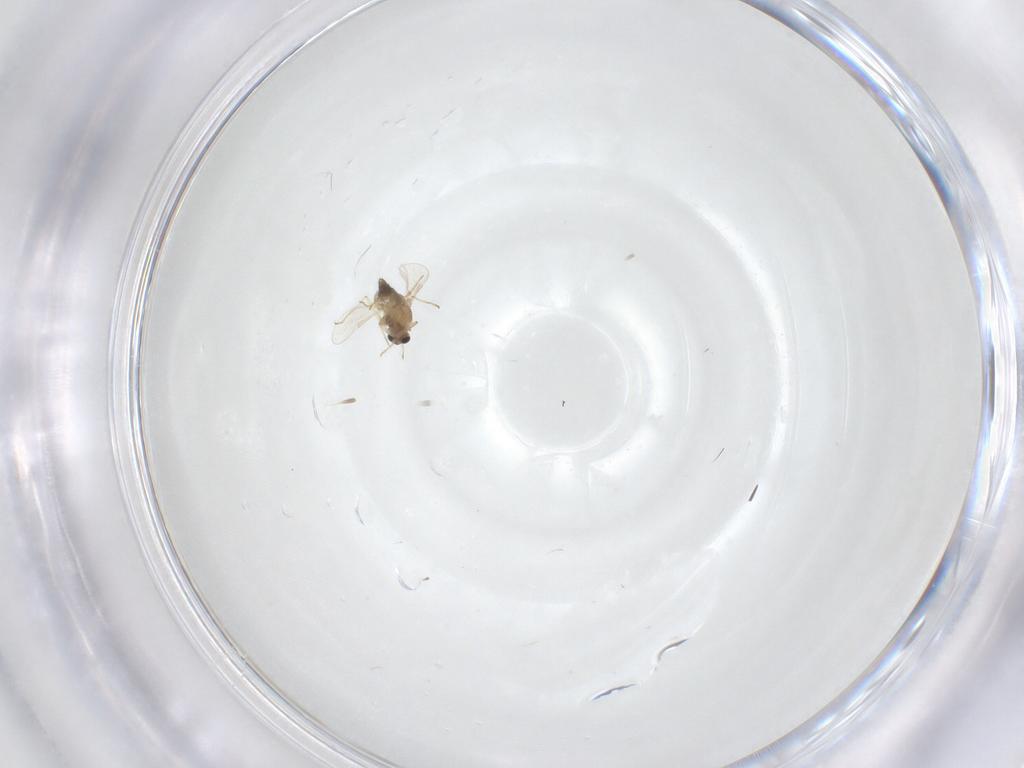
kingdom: Animalia
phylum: Arthropoda
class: Insecta
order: Diptera
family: Chironomidae
